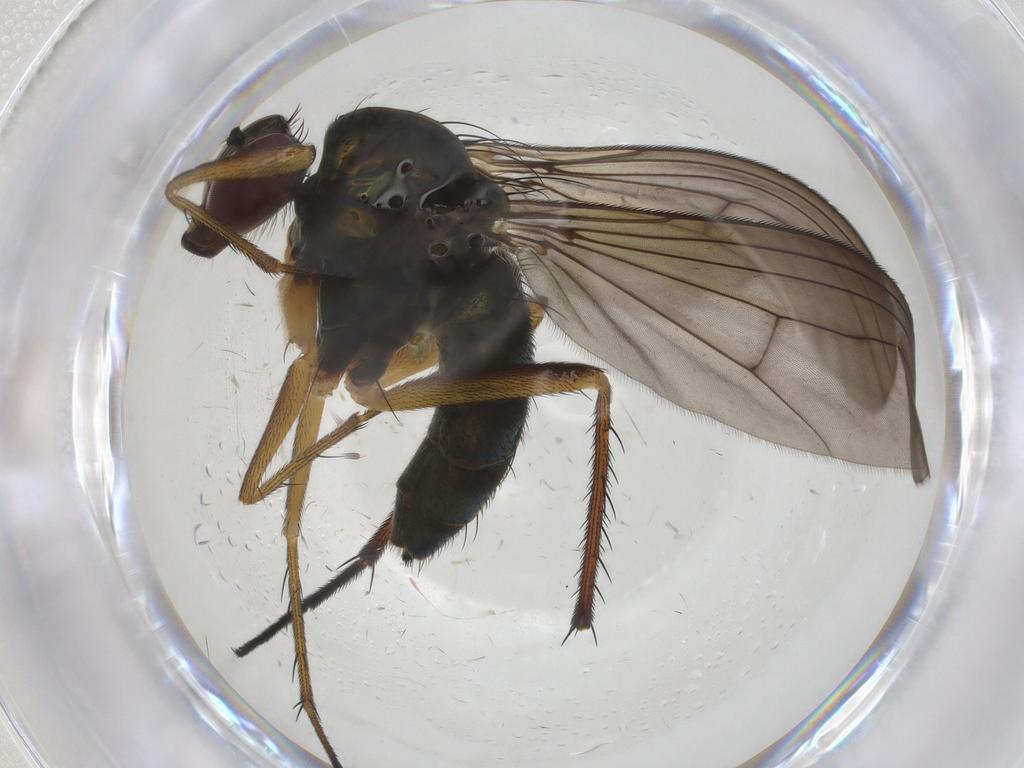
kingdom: Animalia
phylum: Arthropoda
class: Insecta
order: Diptera
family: Dolichopodidae
